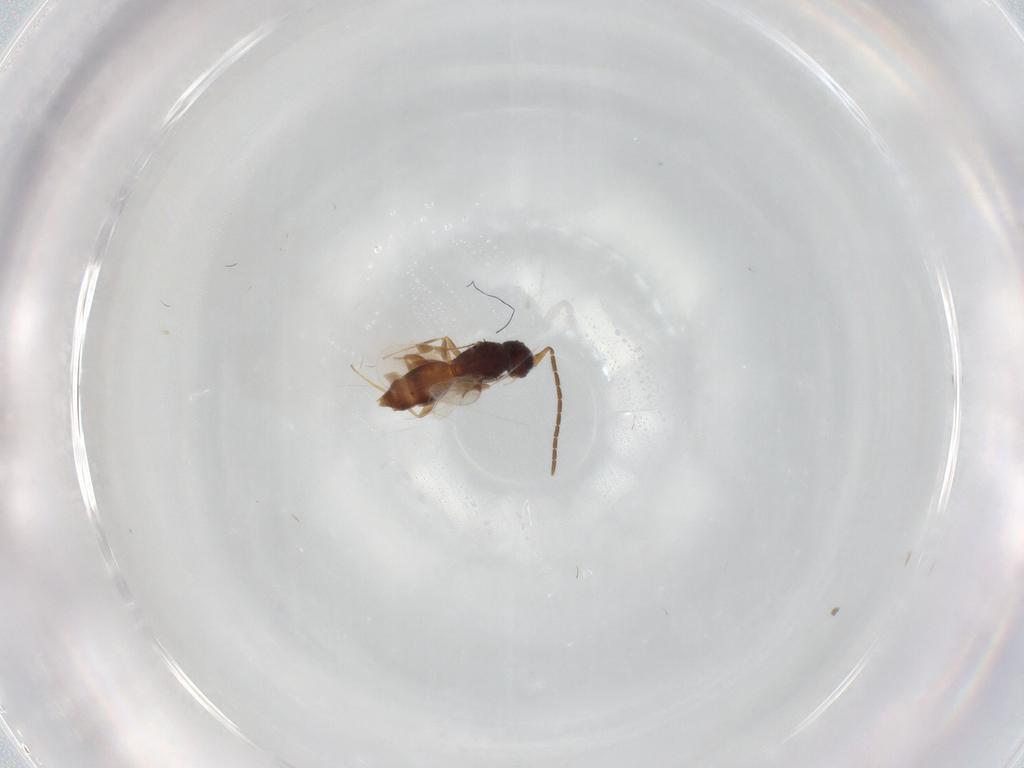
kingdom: Animalia
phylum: Arthropoda
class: Insecta
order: Hymenoptera
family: Megaspilidae
